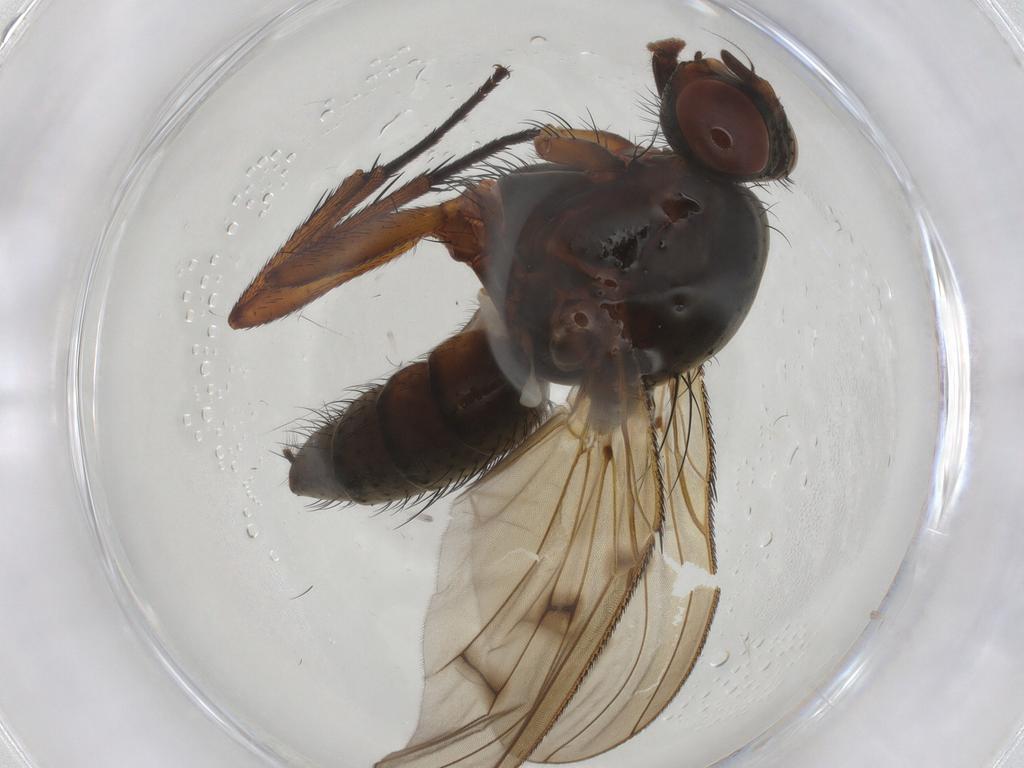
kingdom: Animalia
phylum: Arthropoda
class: Insecta
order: Diptera
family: Anthomyiidae
